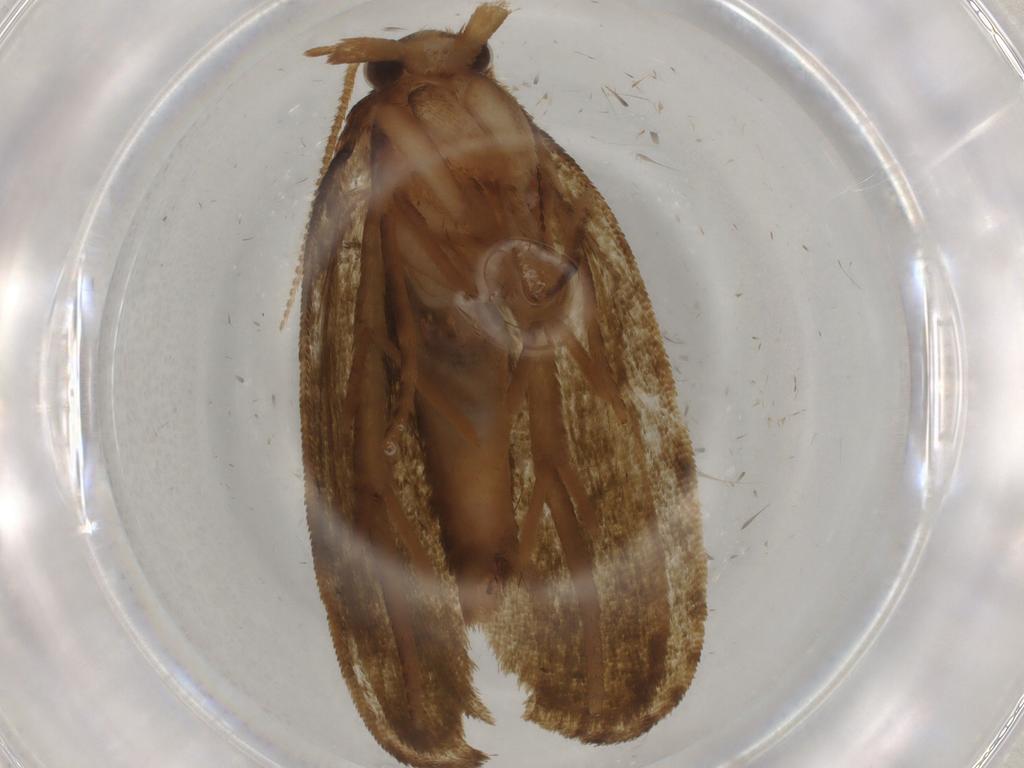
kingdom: Animalia
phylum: Arthropoda
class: Insecta
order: Lepidoptera
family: Geometridae
